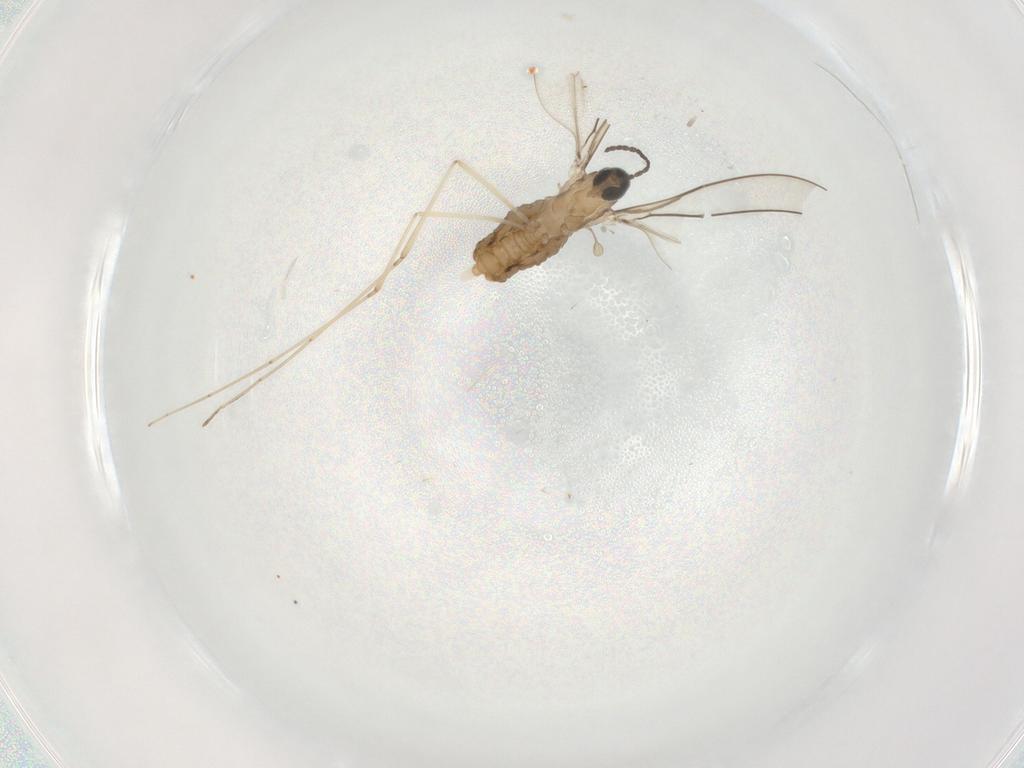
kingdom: Animalia
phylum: Arthropoda
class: Insecta
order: Diptera
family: Cecidomyiidae
